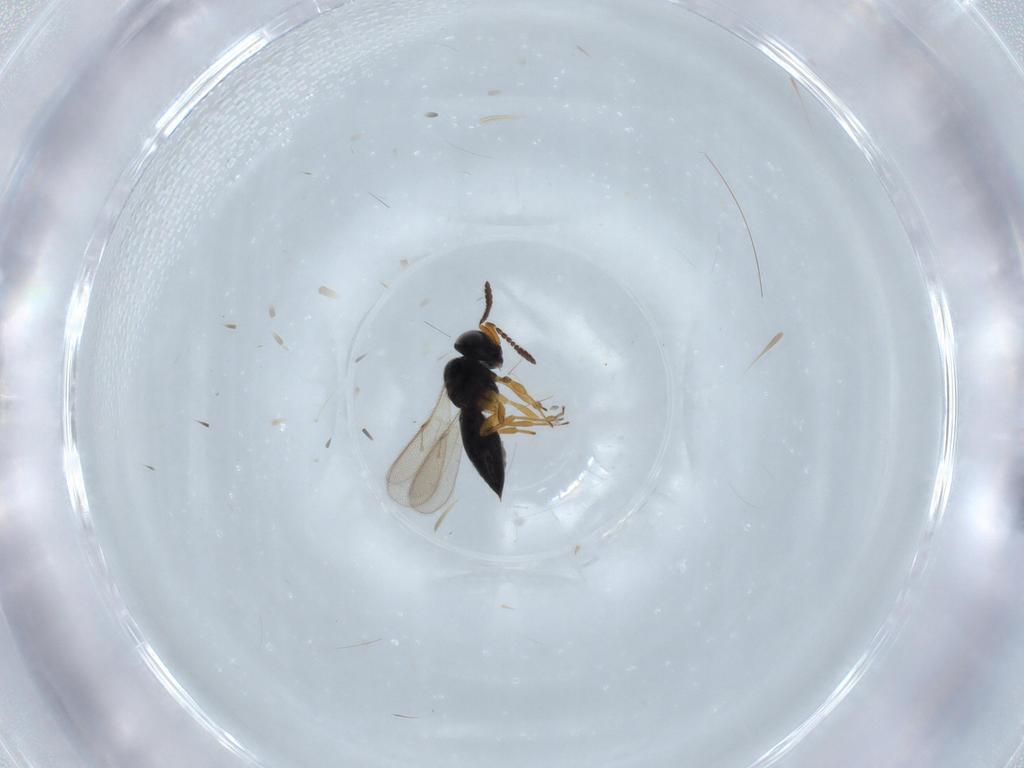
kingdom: Animalia
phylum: Arthropoda
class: Insecta
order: Hymenoptera
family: Scelionidae
